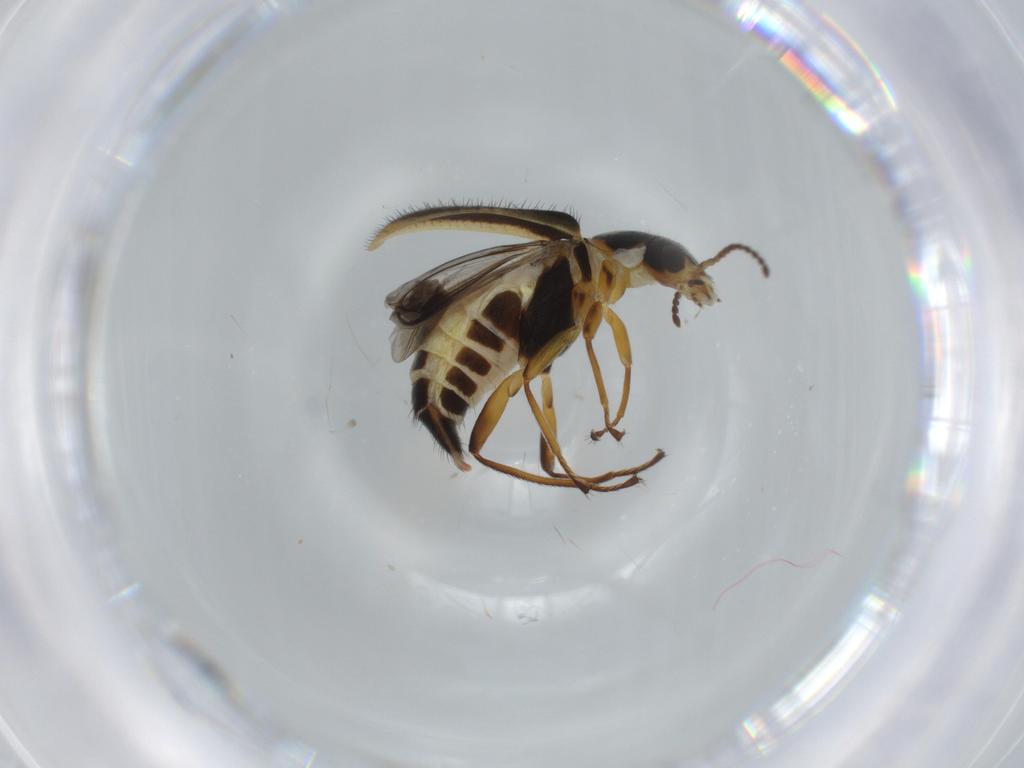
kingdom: Animalia
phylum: Arthropoda
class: Insecta
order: Coleoptera
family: Melyridae
